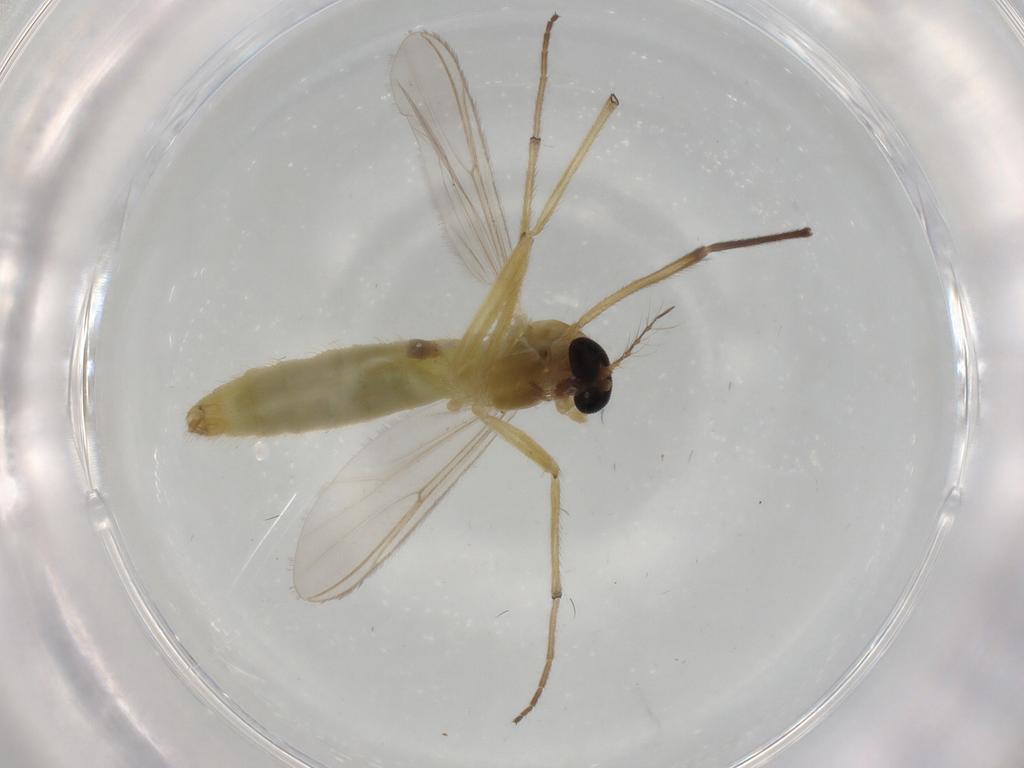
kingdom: Animalia
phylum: Arthropoda
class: Insecta
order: Diptera
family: Chironomidae
